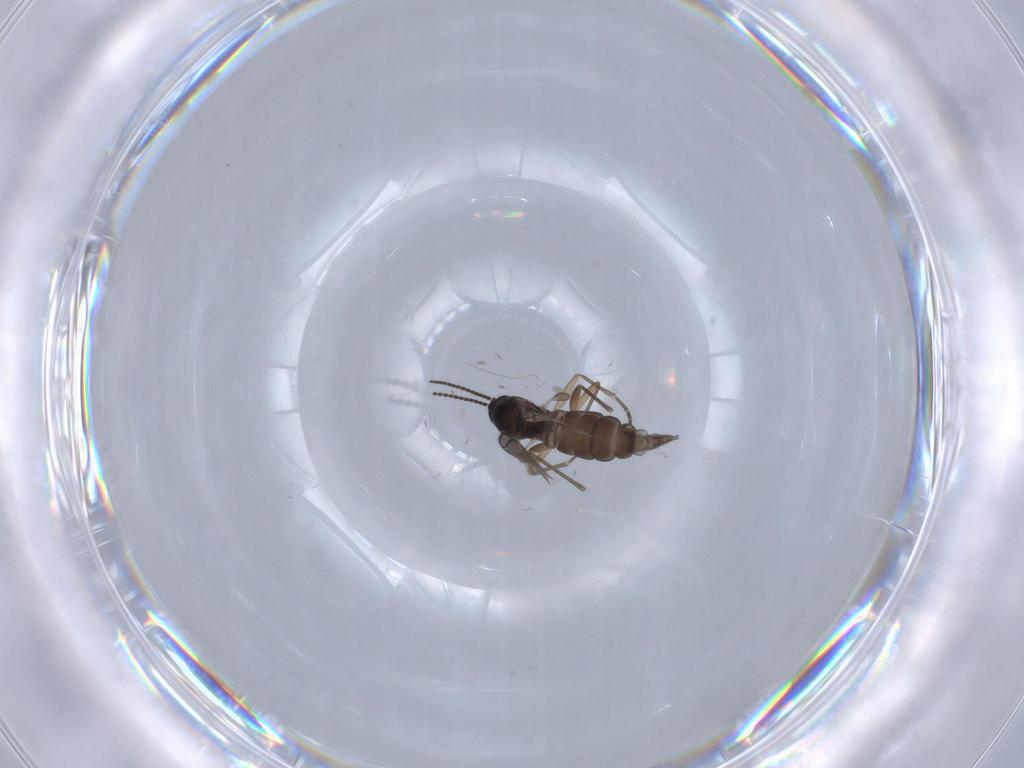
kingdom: Animalia
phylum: Arthropoda
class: Insecta
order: Diptera
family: Sciaridae
